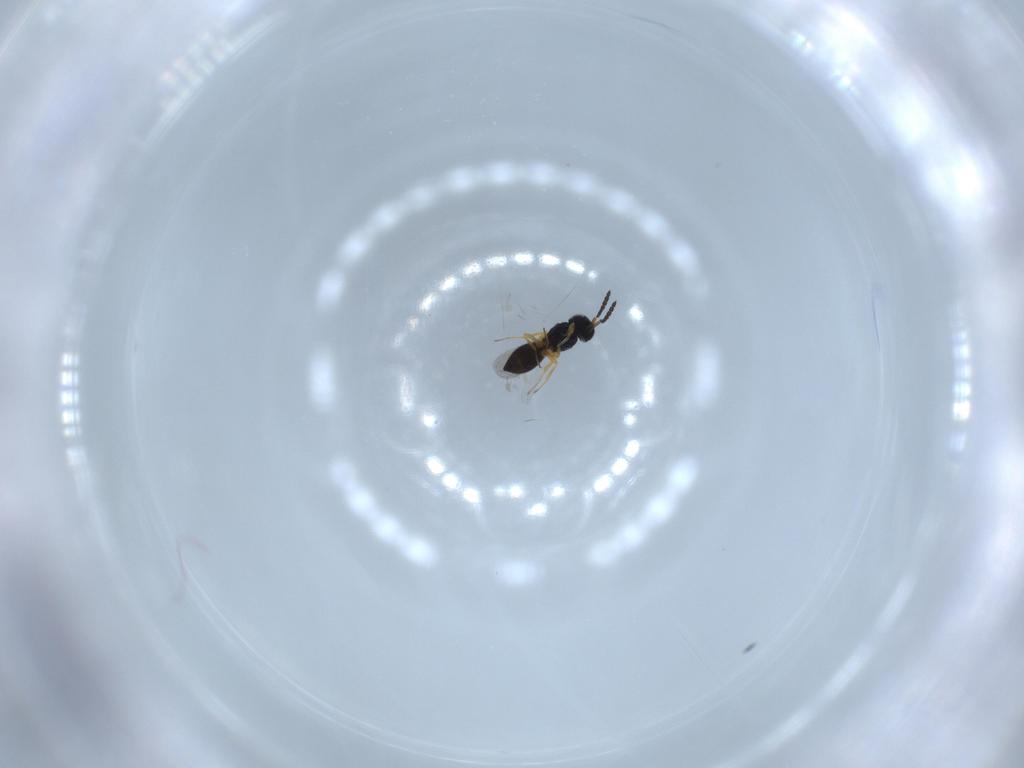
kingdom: Animalia
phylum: Arthropoda
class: Insecta
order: Hymenoptera
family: Scelionidae
